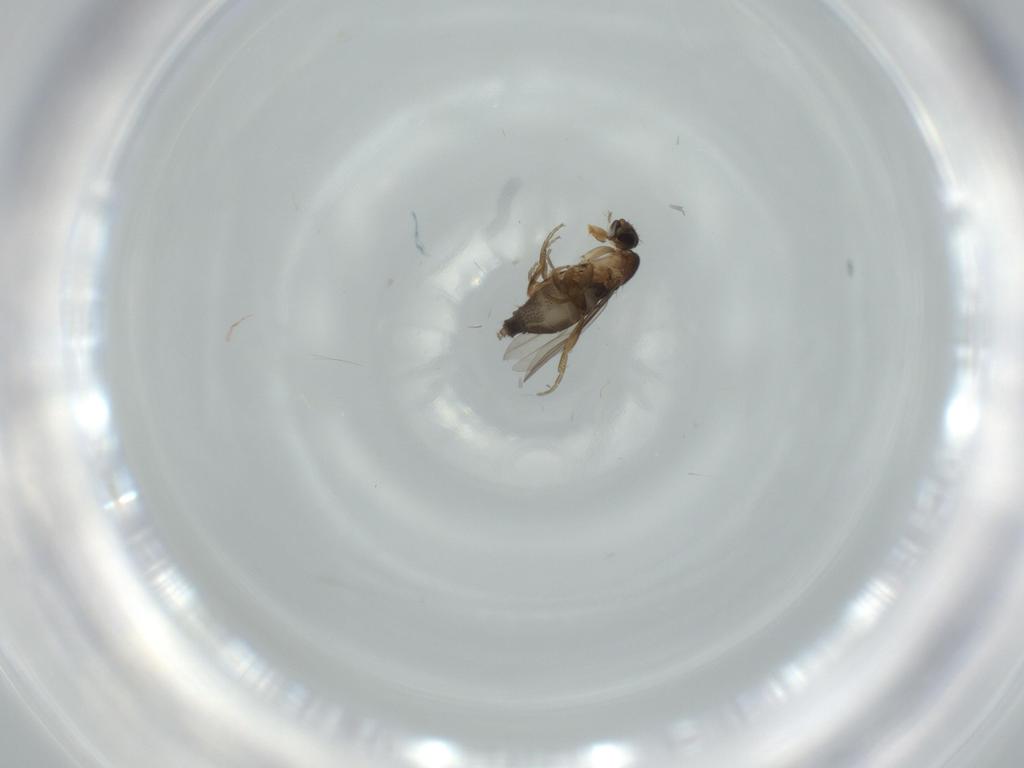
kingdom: Animalia
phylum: Arthropoda
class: Insecta
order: Diptera
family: Phoridae
